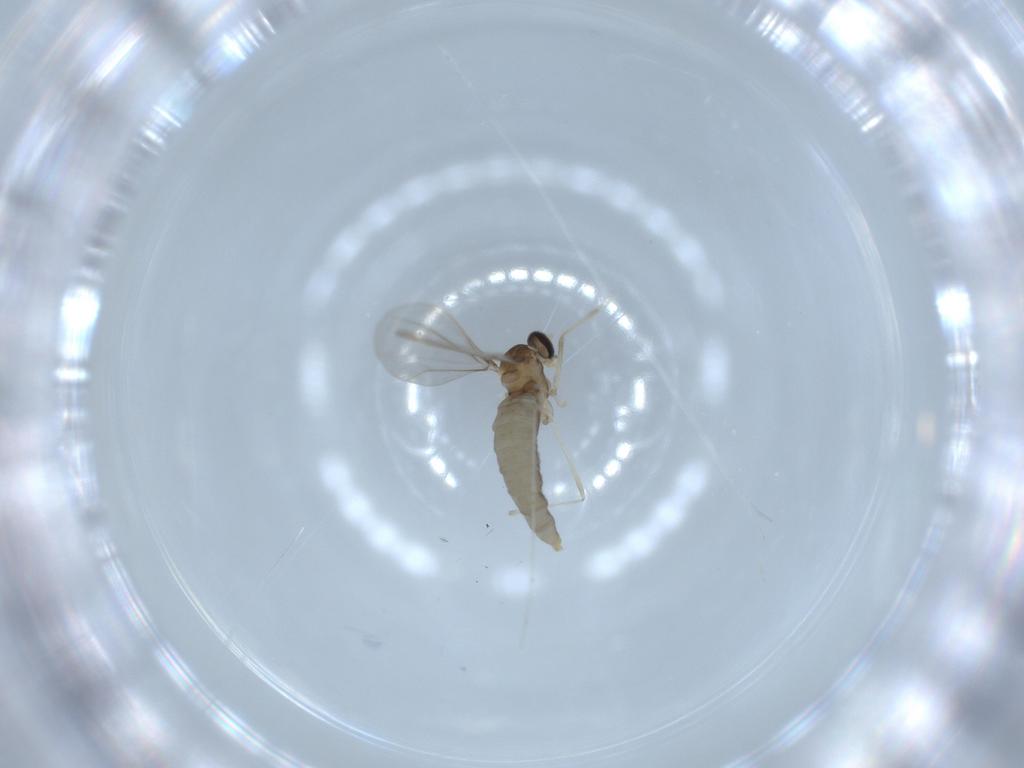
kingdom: Animalia
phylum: Arthropoda
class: Insecta
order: Diptera
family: Cecidomyiidae
